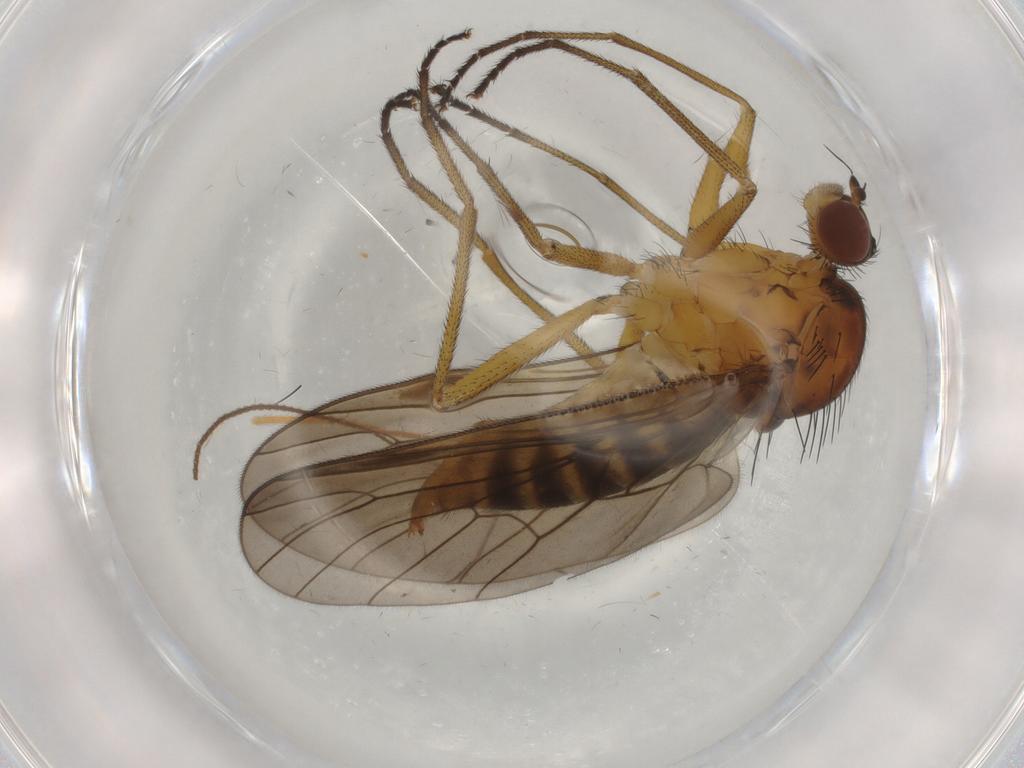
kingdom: Animalia
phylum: Arthropoda
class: Insecta
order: Diptera
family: Brachystomatidae
